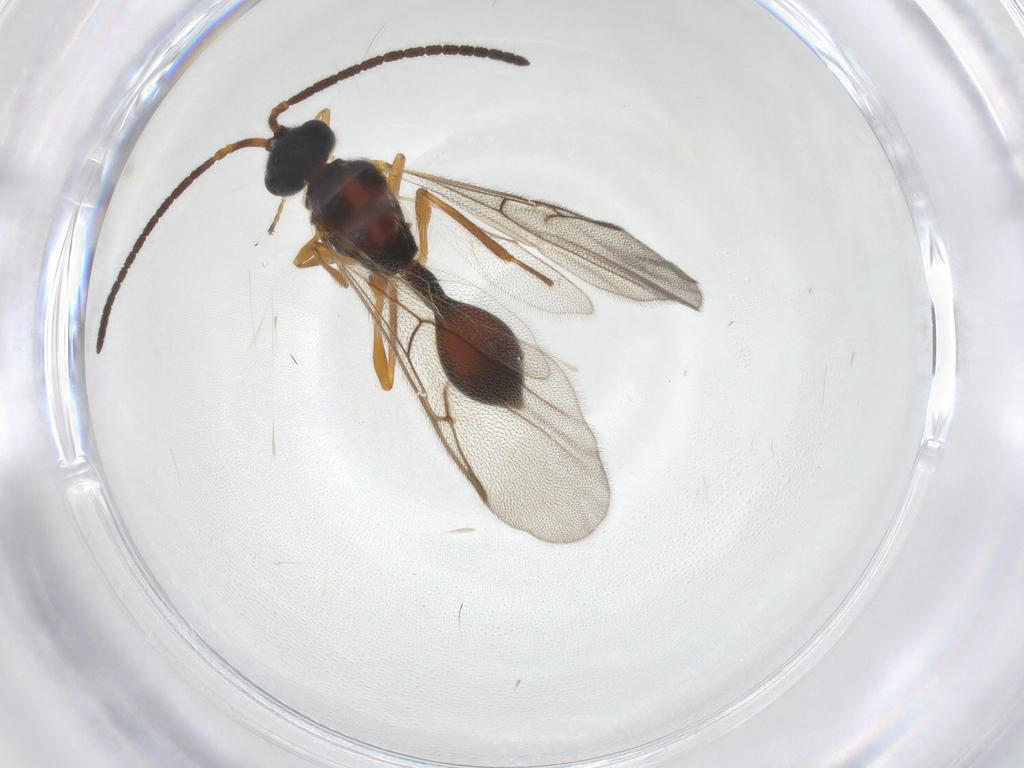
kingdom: Animalia
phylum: Arthropoda
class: Insecta
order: Hymenoptera
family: Diapriidae
